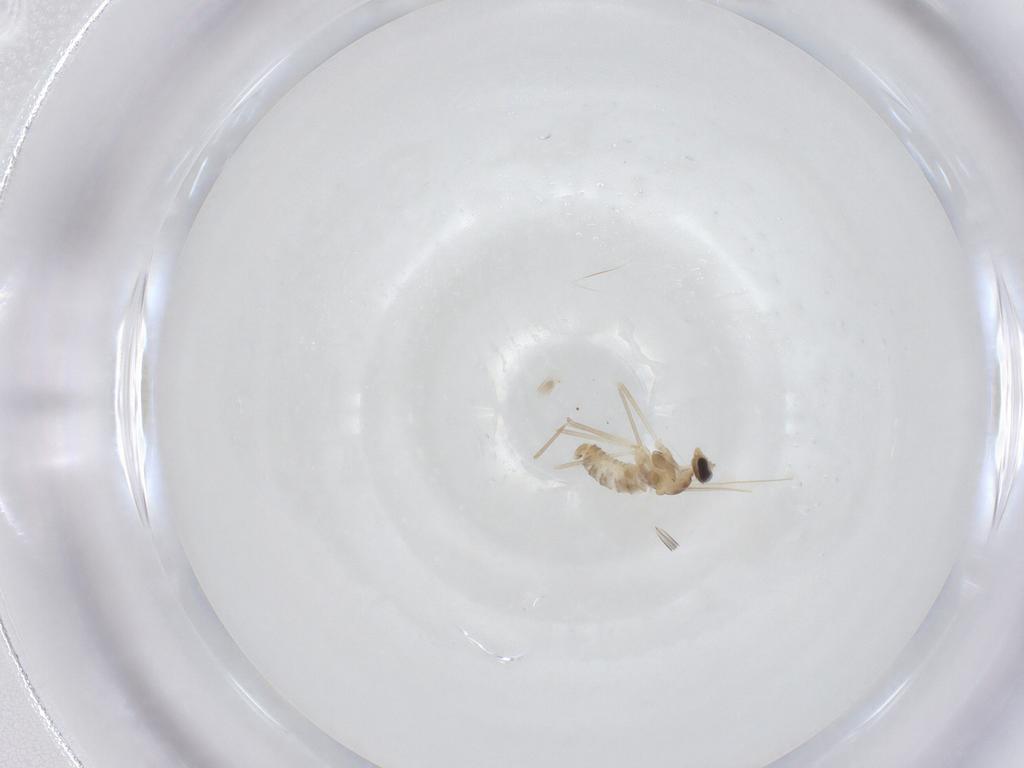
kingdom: Animalia
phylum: Arthropoda
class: Insecta
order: Diptera
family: Cecidomyiidae
